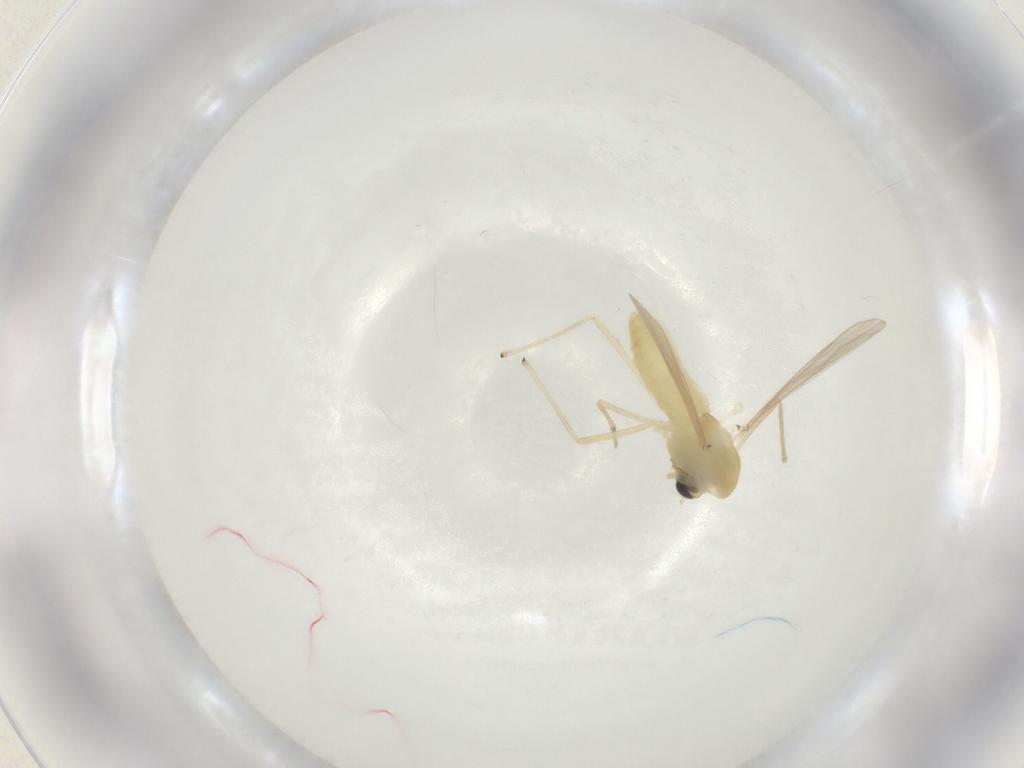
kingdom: Animalia
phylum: Arthropoda
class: Insecta
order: Diptera
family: Chironomidae
